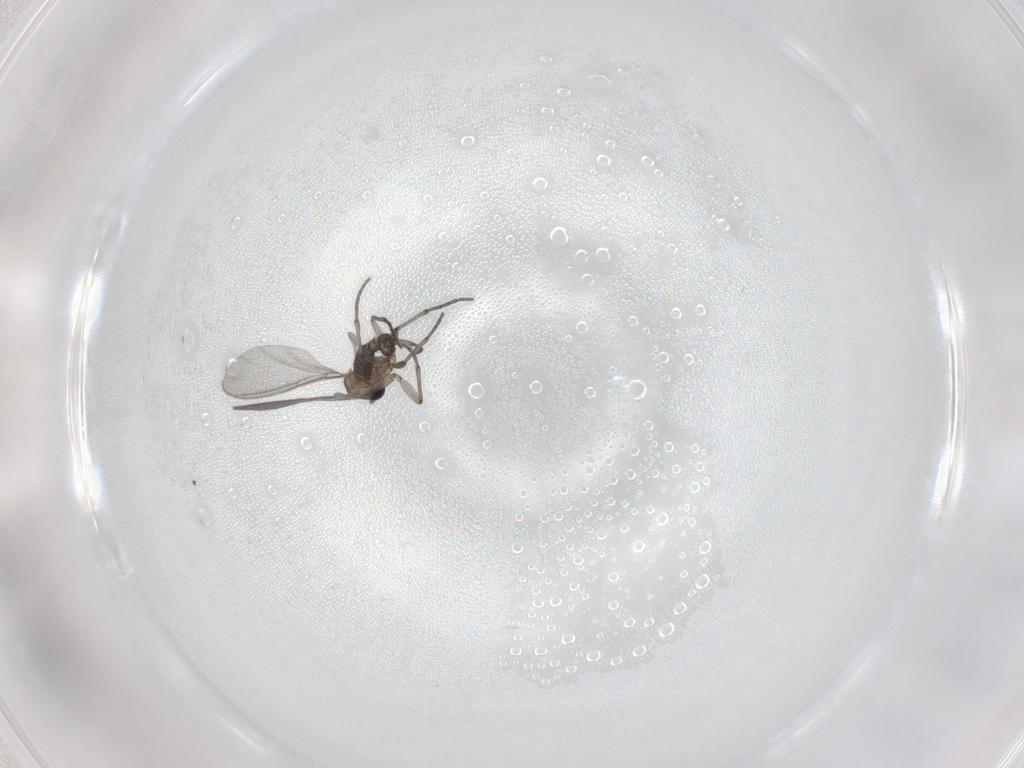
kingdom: Animalia
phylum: Arthropoda
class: Insecta
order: Diptera
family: Sciaridae
